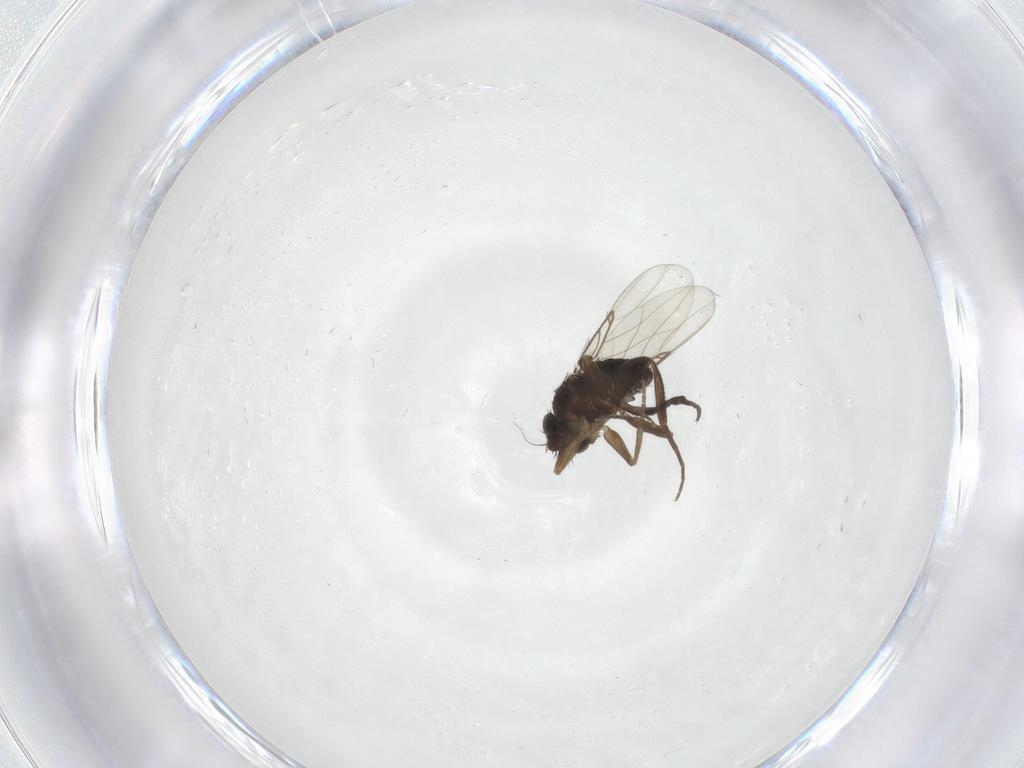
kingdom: Animalia
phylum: Arthropoda
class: Insecta
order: Diptera
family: Phoridae
